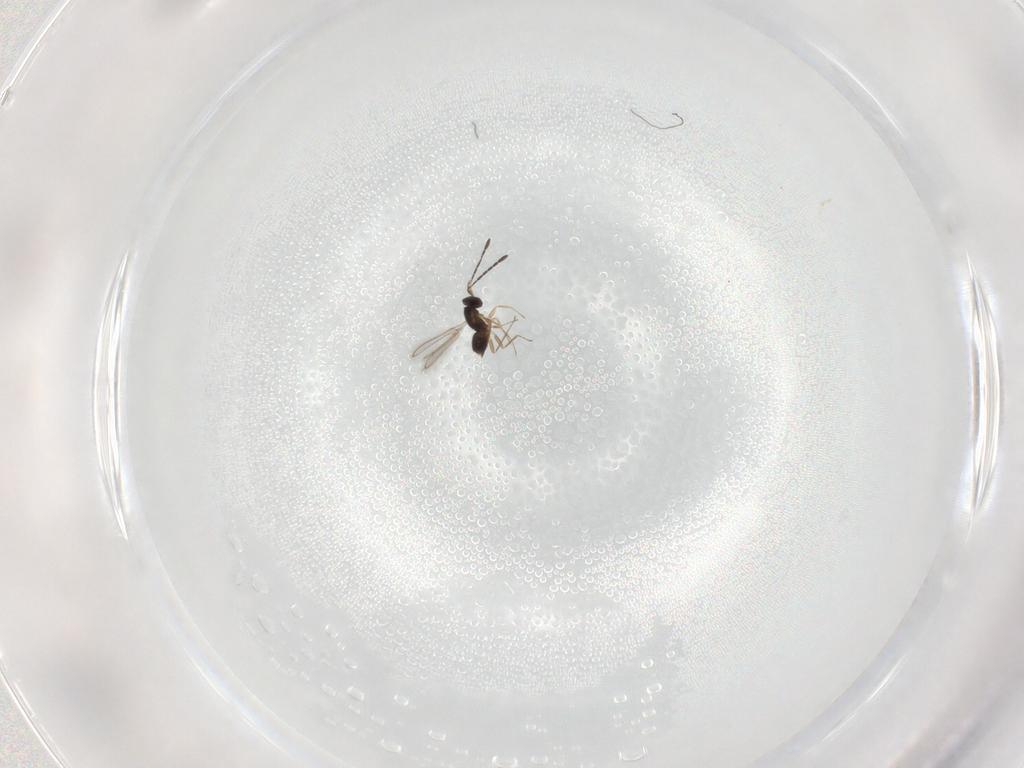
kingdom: Animalia
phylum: Arthropoda
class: Insecta
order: Hymenoptera
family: Mymaridae
